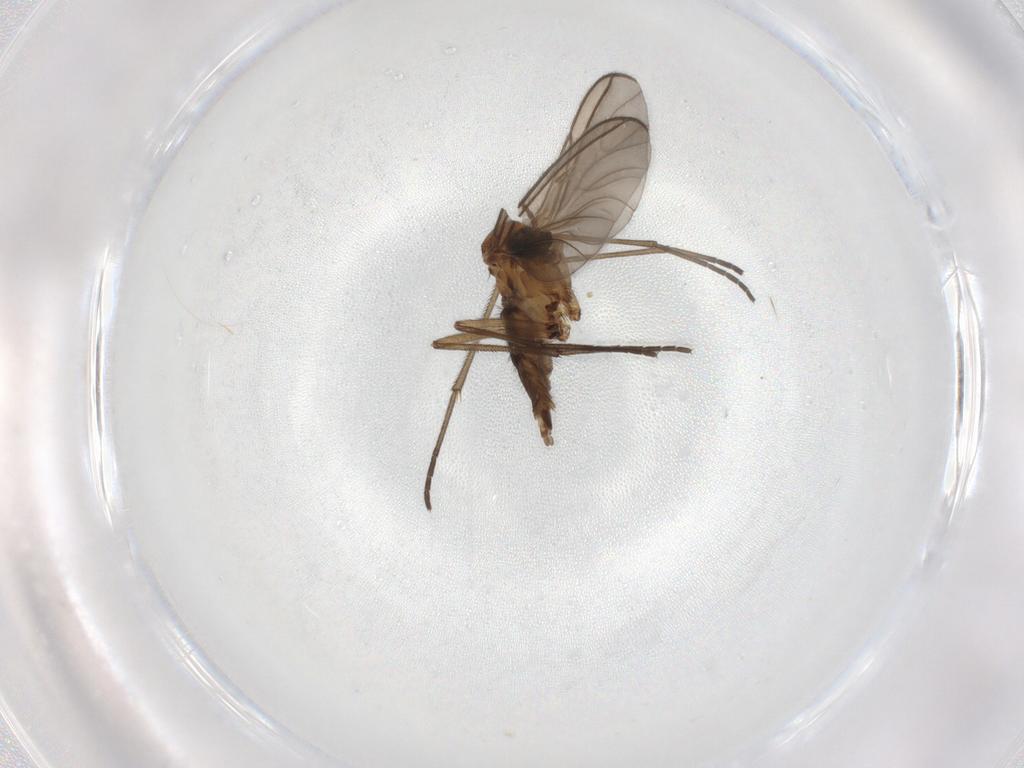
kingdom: Animalia
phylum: Arthropoda
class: Insecta
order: Diptera
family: Sciaridae
